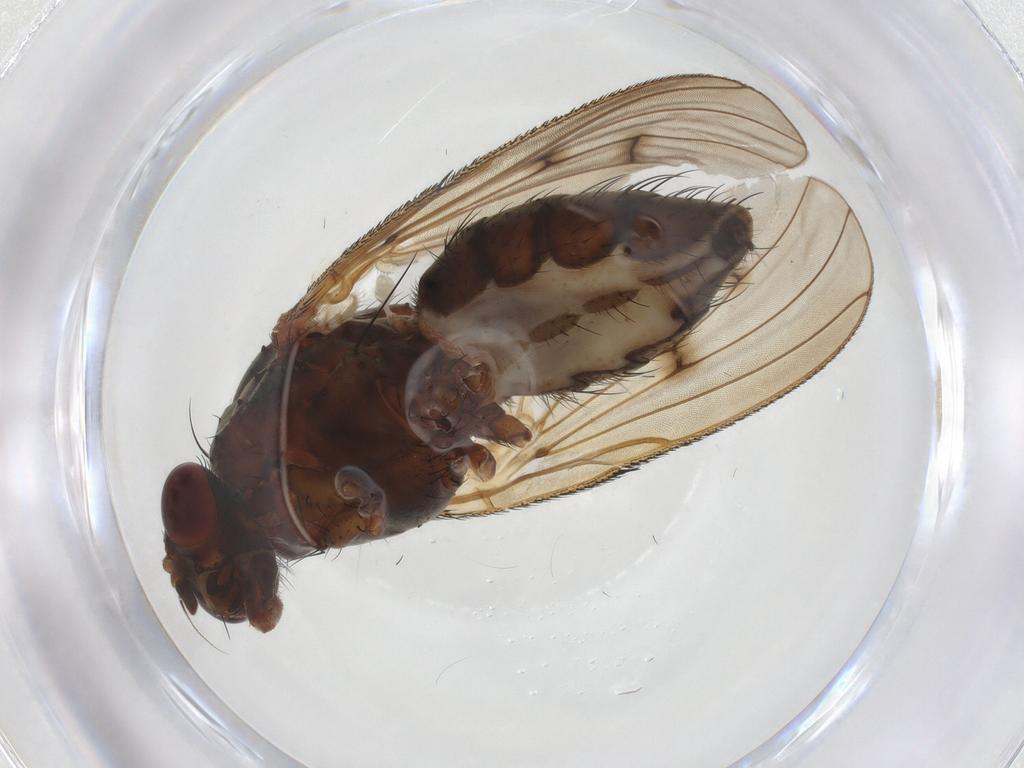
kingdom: Animalia
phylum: Arthropoda
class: Insecta
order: Diptera
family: Anthomyiidae
